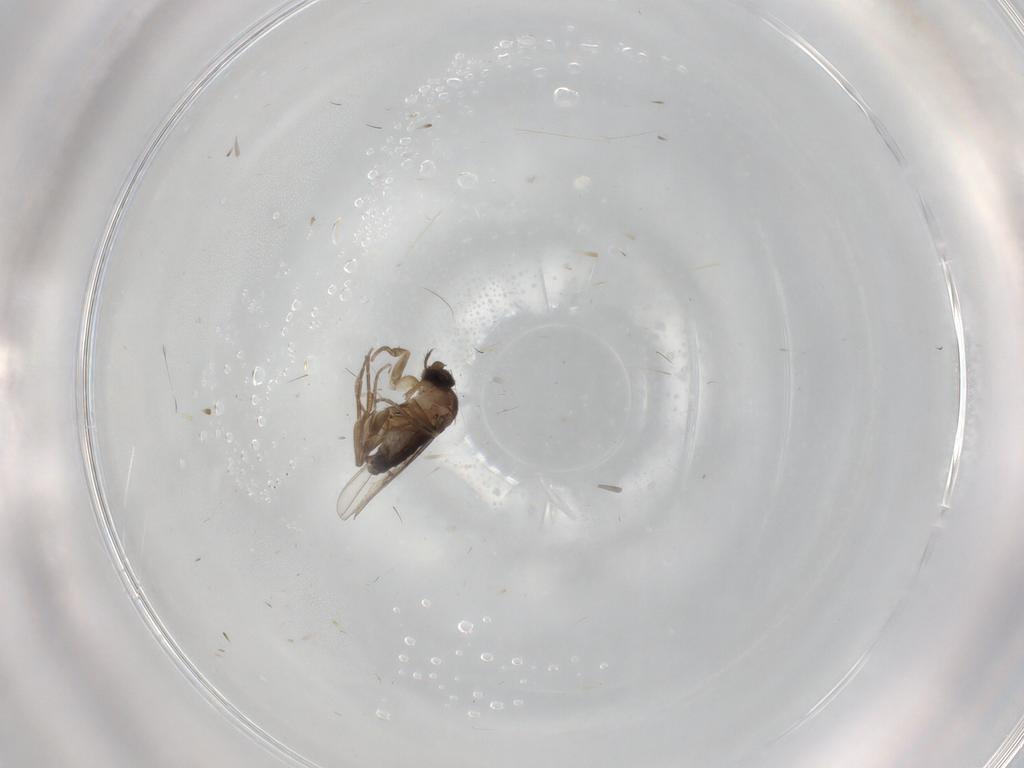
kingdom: Animalia
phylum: Arthropoda
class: Insecta
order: Diptera
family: Phoridae
